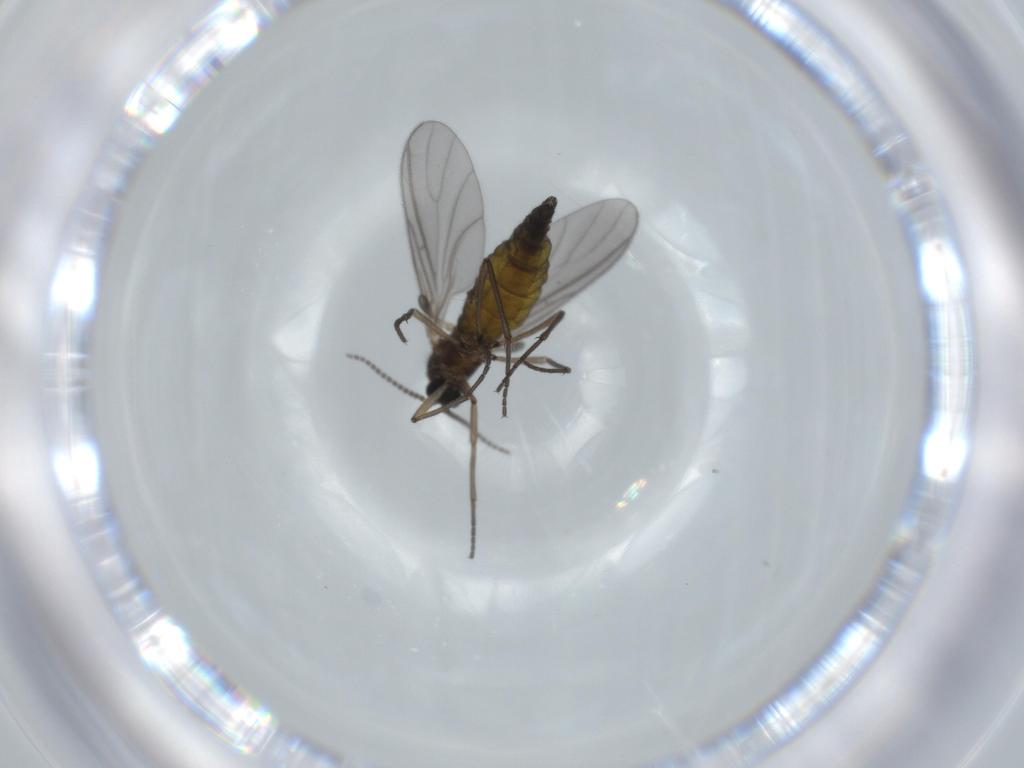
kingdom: Animalia
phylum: Arthropoda
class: Insecta
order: Diptera
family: Sciaridae
